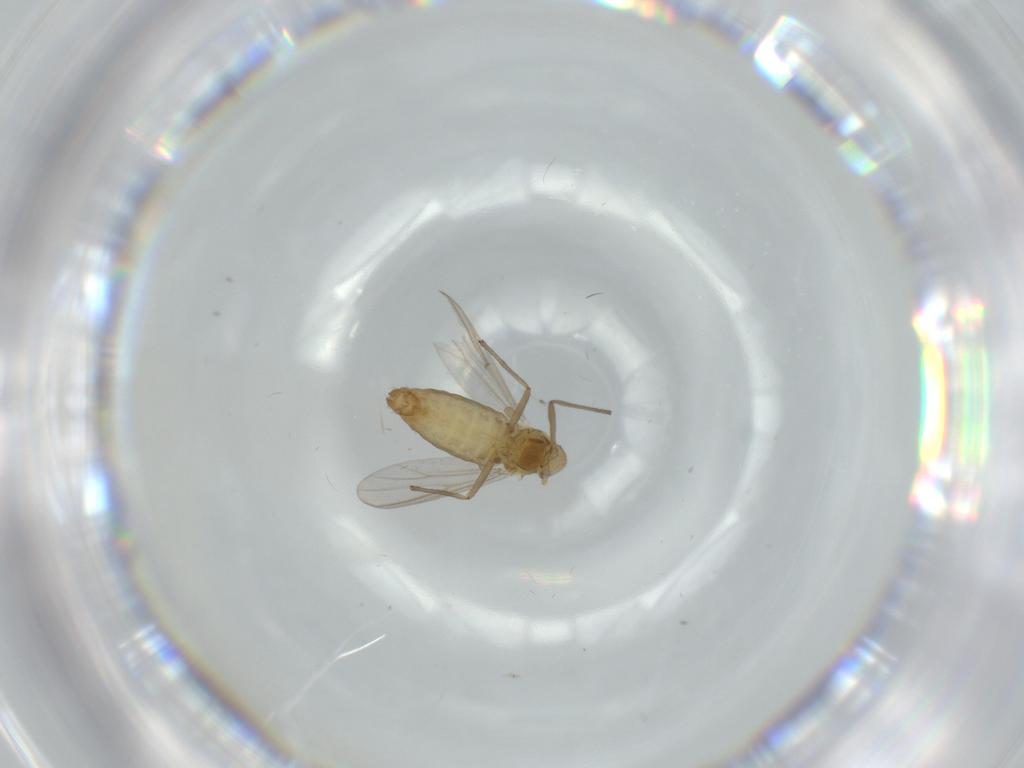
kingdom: Animalia
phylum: Arthropoda
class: Insecta
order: Diptera
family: Chironomidae
